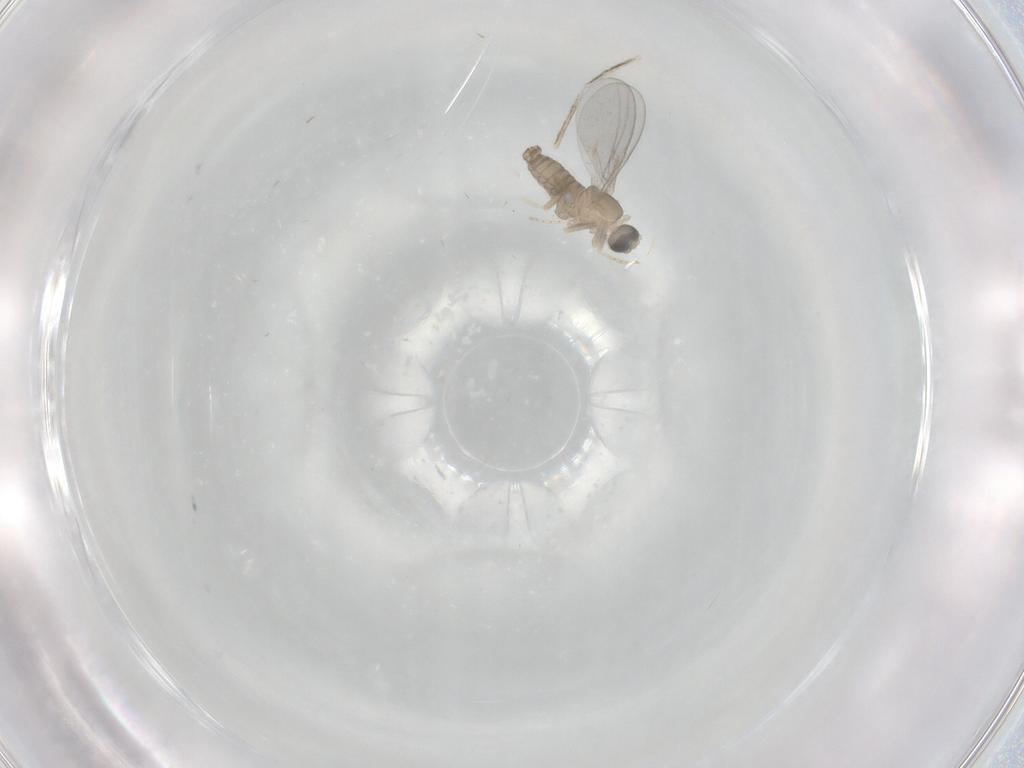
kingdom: Animalia
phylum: Arthropoda
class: Insecta
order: Diptera
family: Cecidomyiidae
